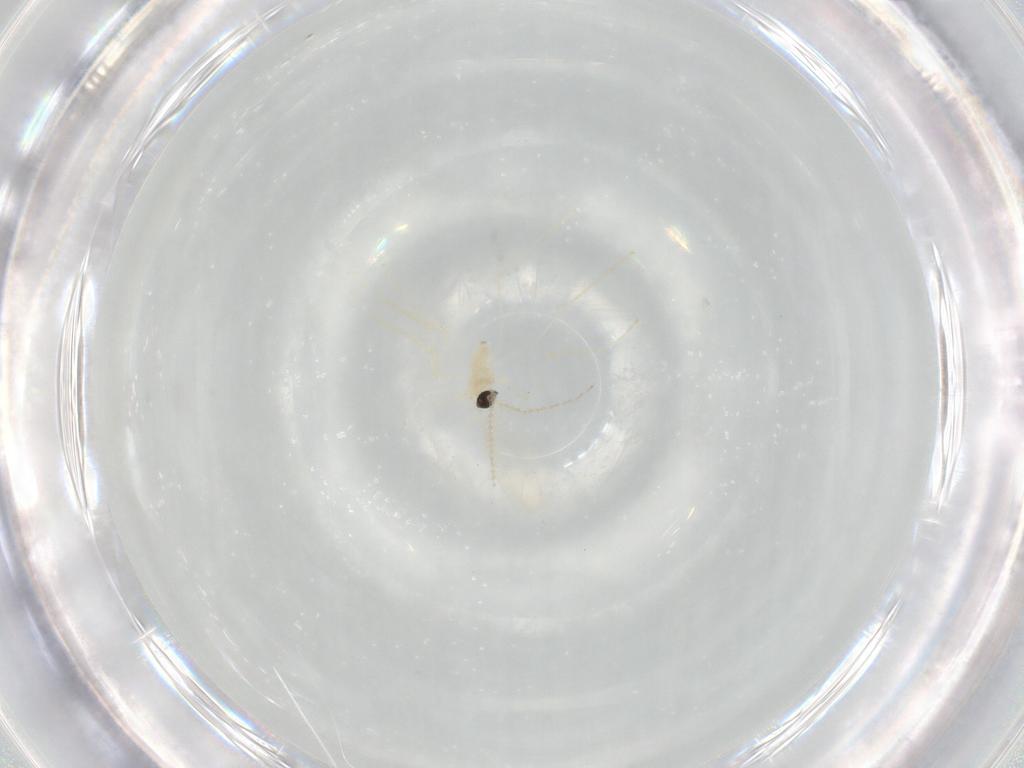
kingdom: Animalia
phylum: Arthropoda
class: Insecta
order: Diptera
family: Cecidomyiidae
